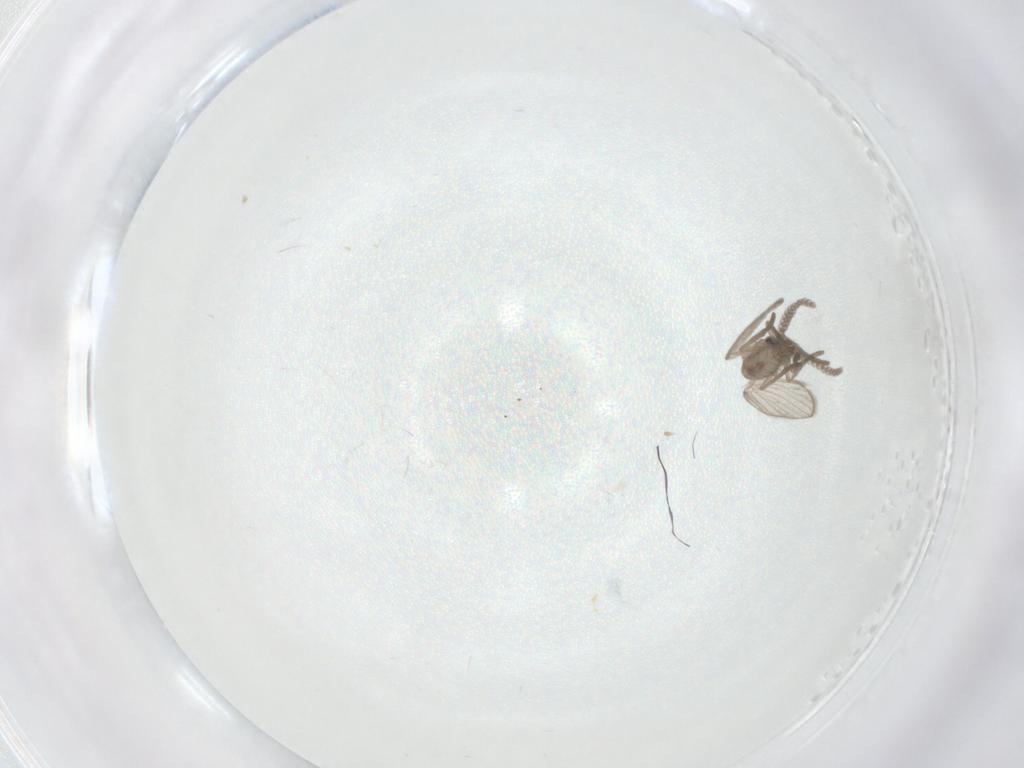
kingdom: Animalia
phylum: Arthropoda
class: Insecta
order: Diptera
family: Psychodidae
